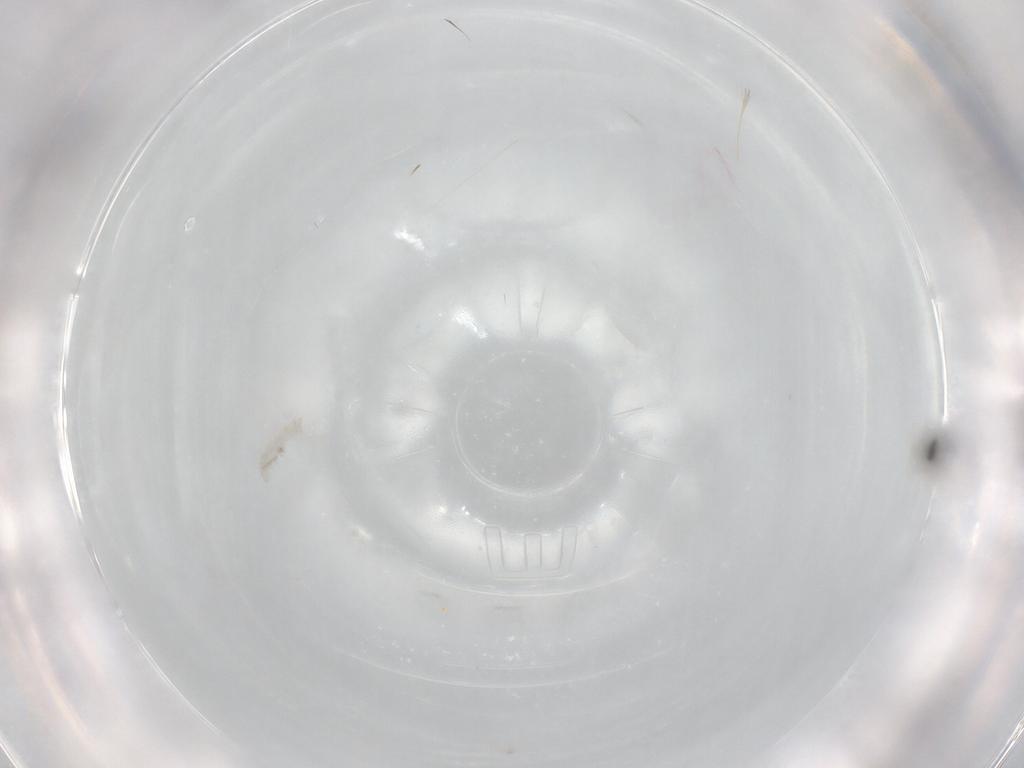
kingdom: Animalia
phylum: Arthropoda
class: Insecta
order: Hymenoptera
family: Mymaridae
